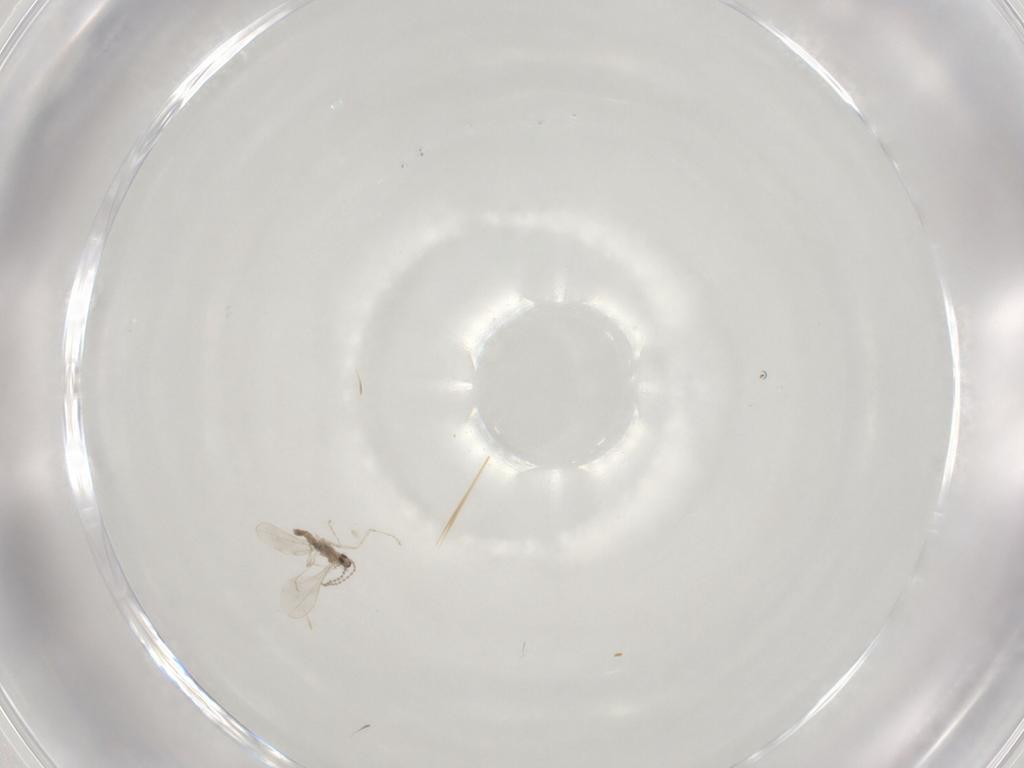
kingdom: Animalia
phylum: Arthropoda
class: Insecta
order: Diptera
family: Cecidomyiidae
